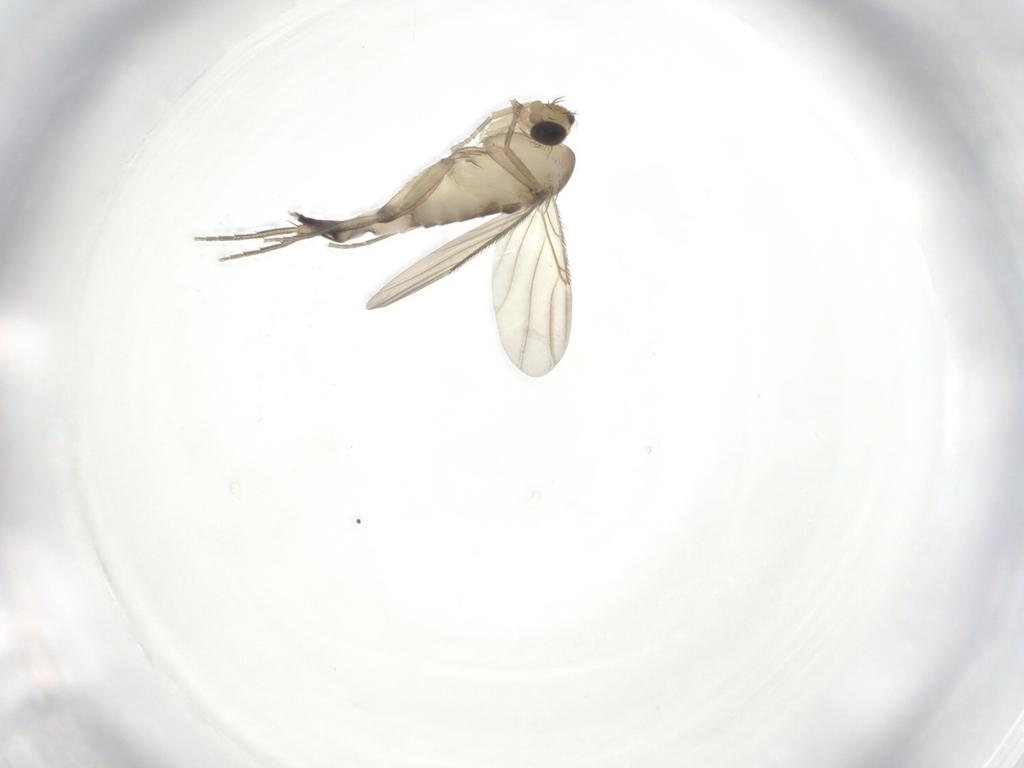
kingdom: Animalia
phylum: Arthropoda
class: Insecta
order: Diptera
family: Phoridae
